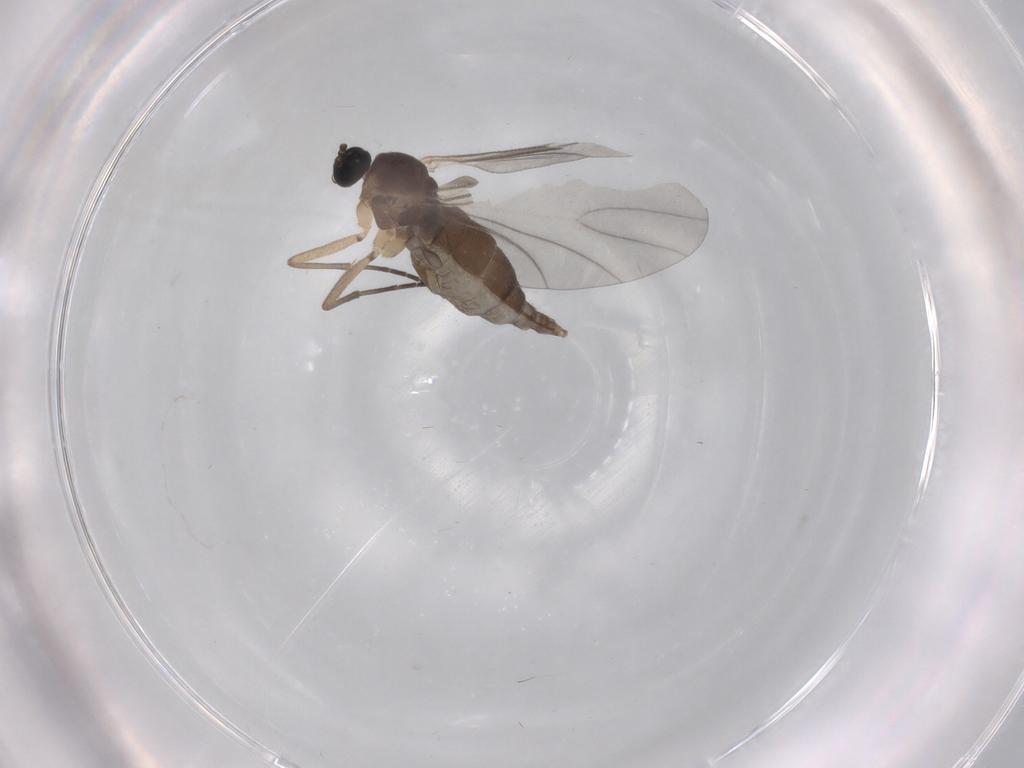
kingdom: Animalia
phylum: Arthropoda
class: Insecta
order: Diptera
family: Sciaridae
